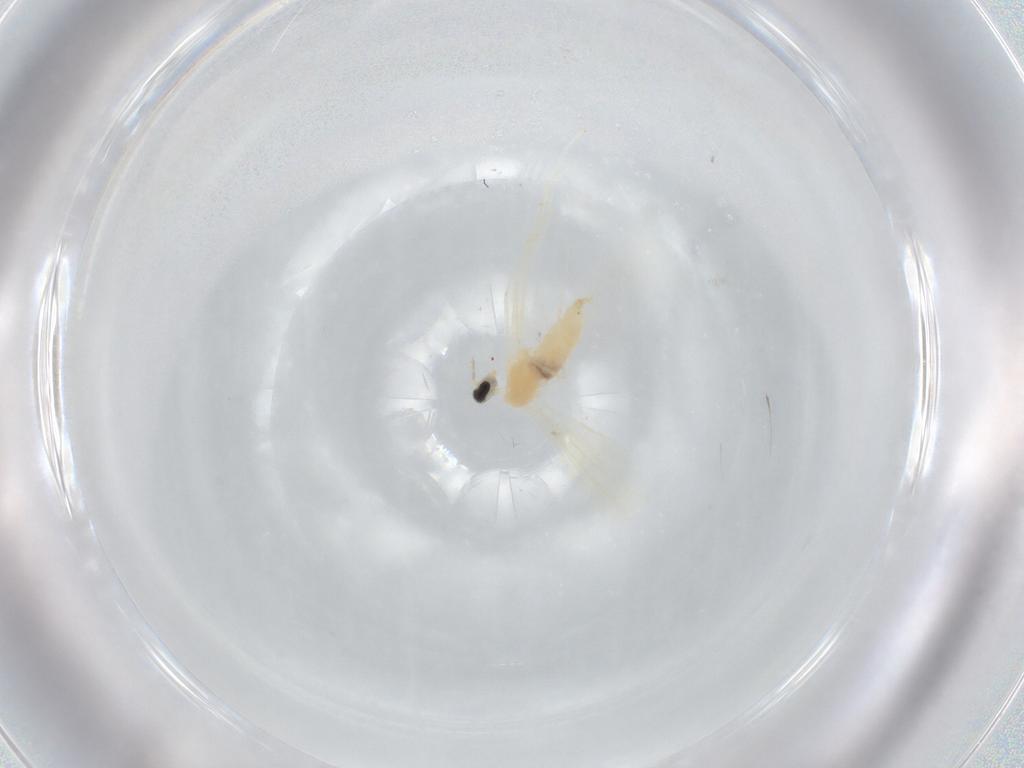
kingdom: Animalia
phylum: Arthropoda
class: Insecta
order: Diptera
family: Cecidomyiidae
